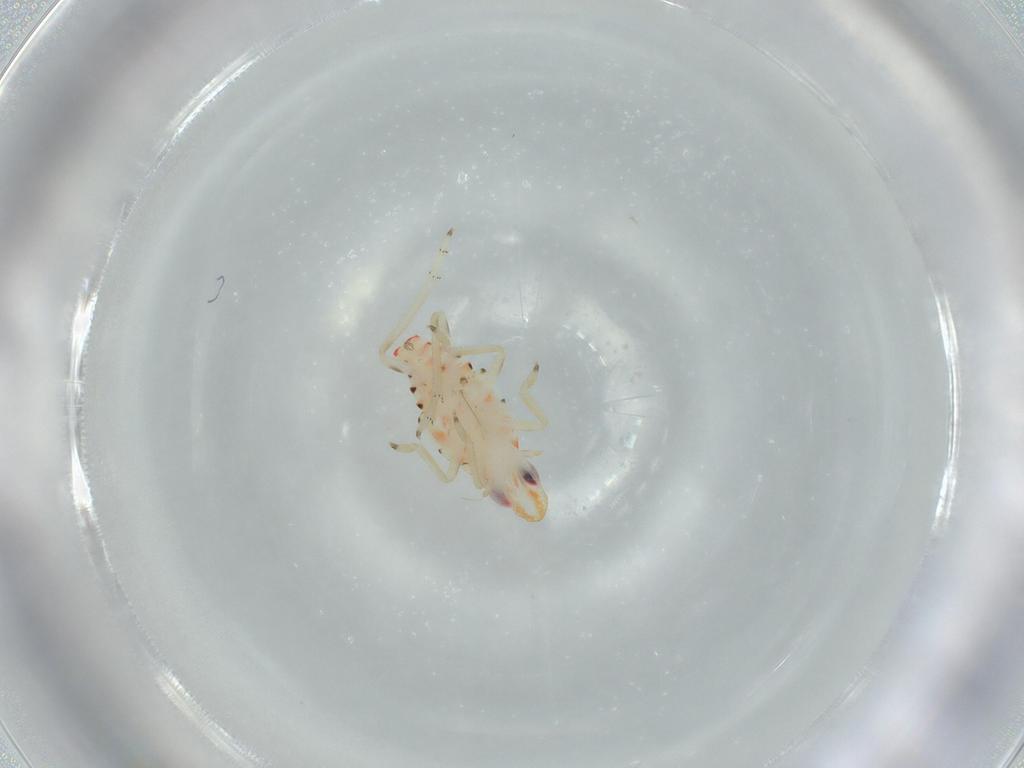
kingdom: Animalia
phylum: Arthropoda
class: Insecta
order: Hemiptera
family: Tropiduchidae
